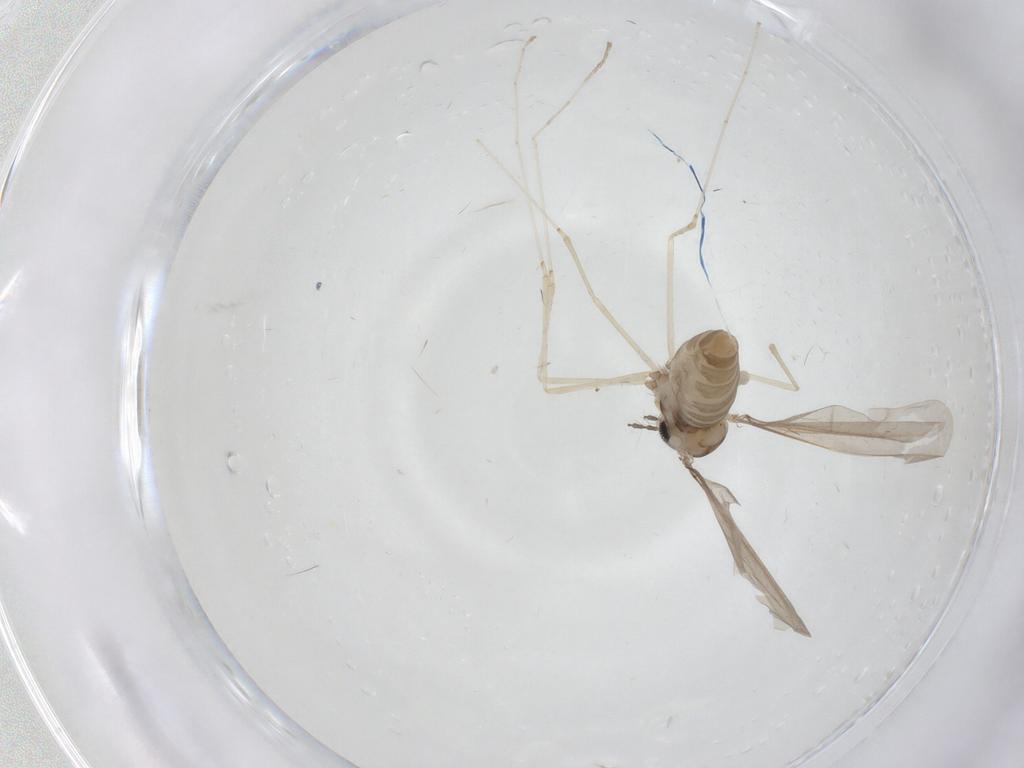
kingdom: Animalia
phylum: Arthropoda
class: Insecta
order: Diptera
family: Cecidomyiidae
